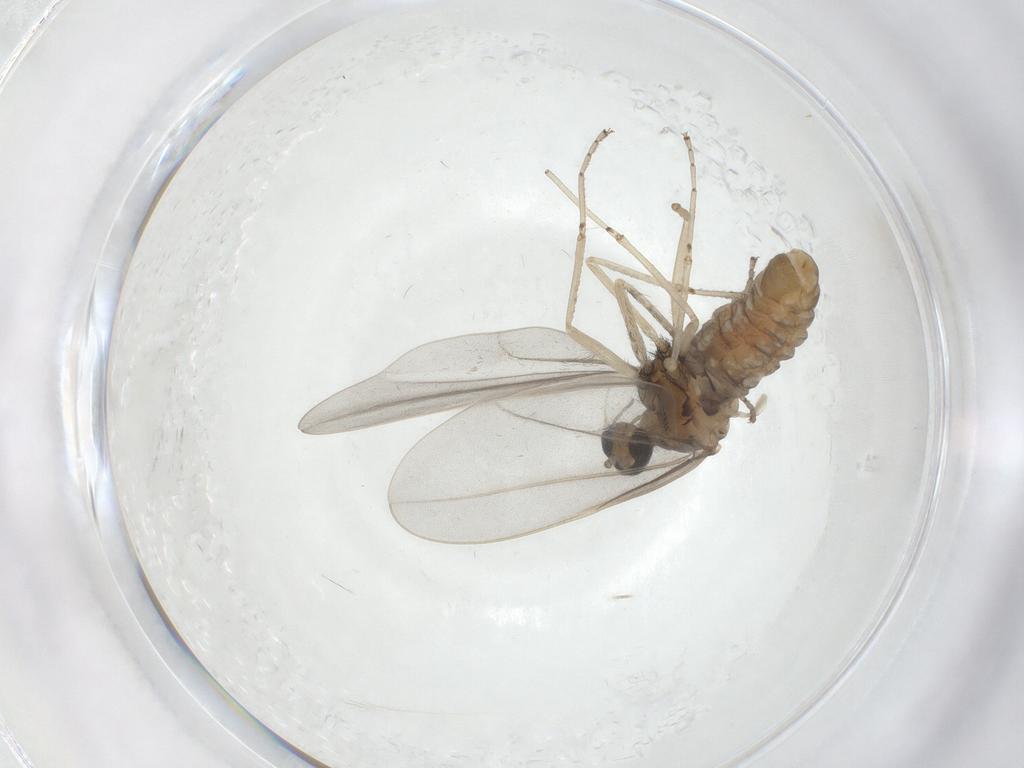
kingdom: Animalia
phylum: Arthropoda
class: Insecta
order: Diptera
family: Cecidomyiidae
